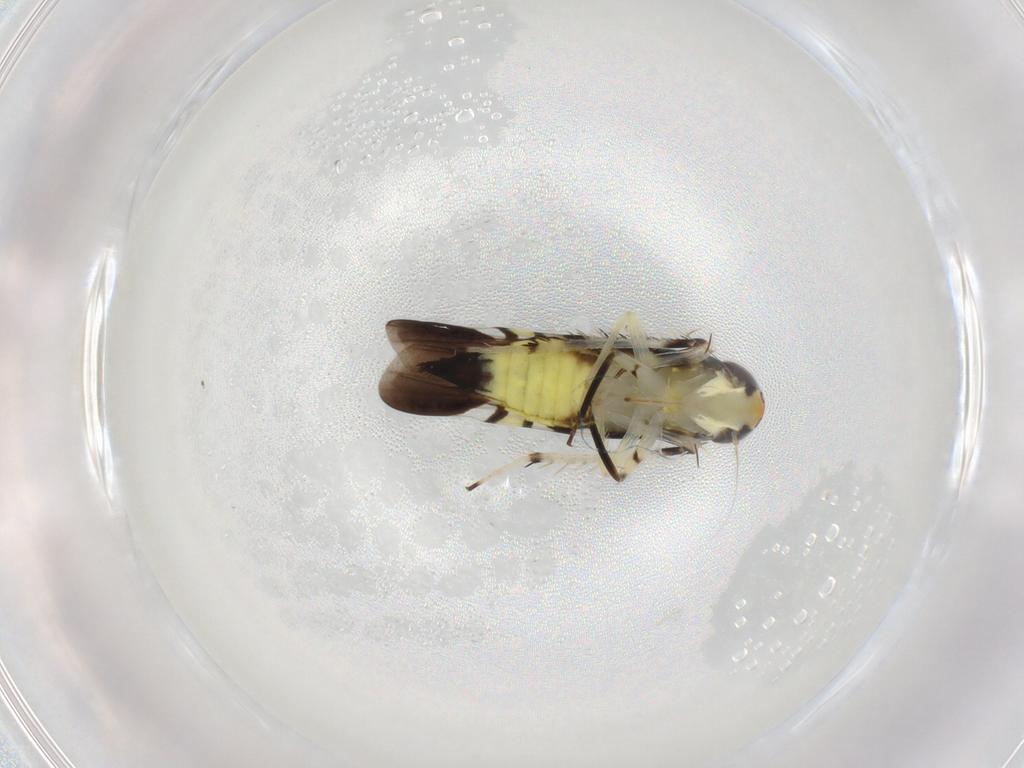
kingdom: Animalia
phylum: Arthropoda
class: Insecta
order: Hemiptera
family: Cicadellidae
